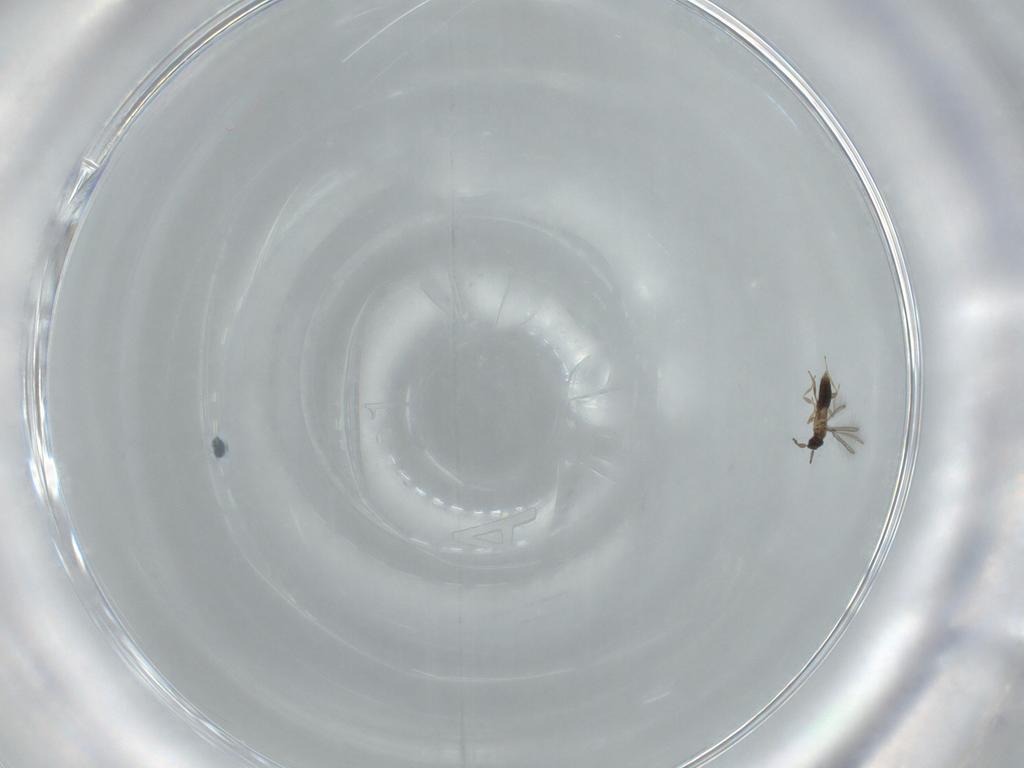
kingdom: Animalia
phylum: Arthropoda
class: Insecta
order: Hymenoptera
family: Mymaridae
